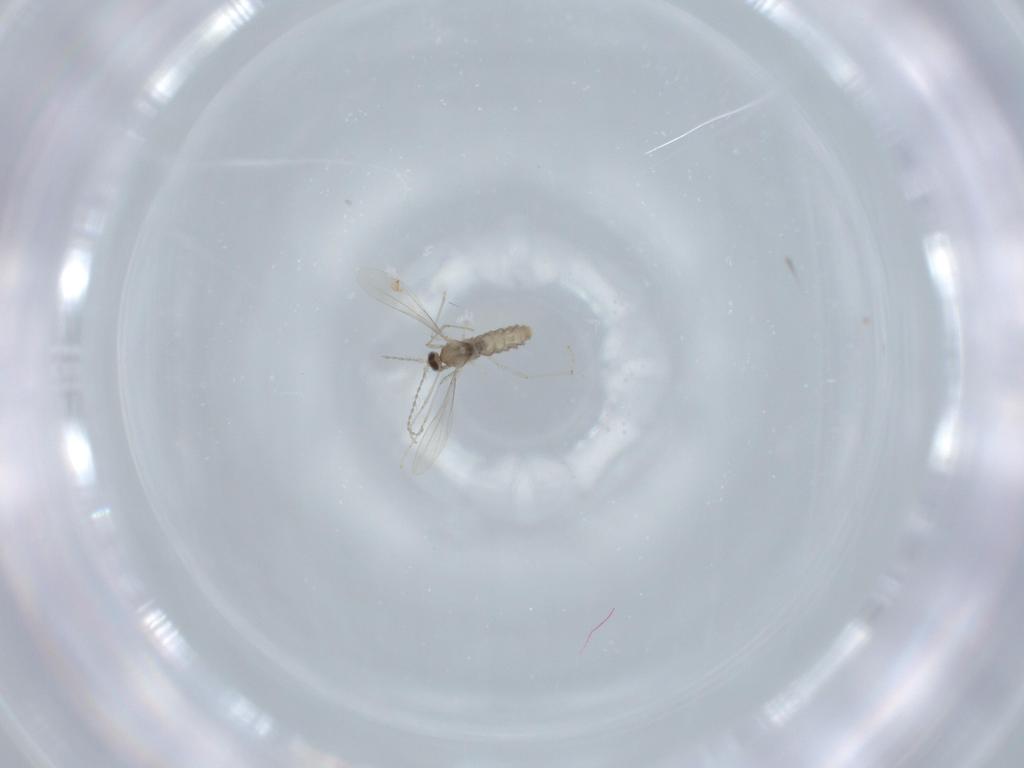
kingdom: Animalia
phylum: Arthropoda
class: Insecta
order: Diptera
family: Cecidomyiidae
